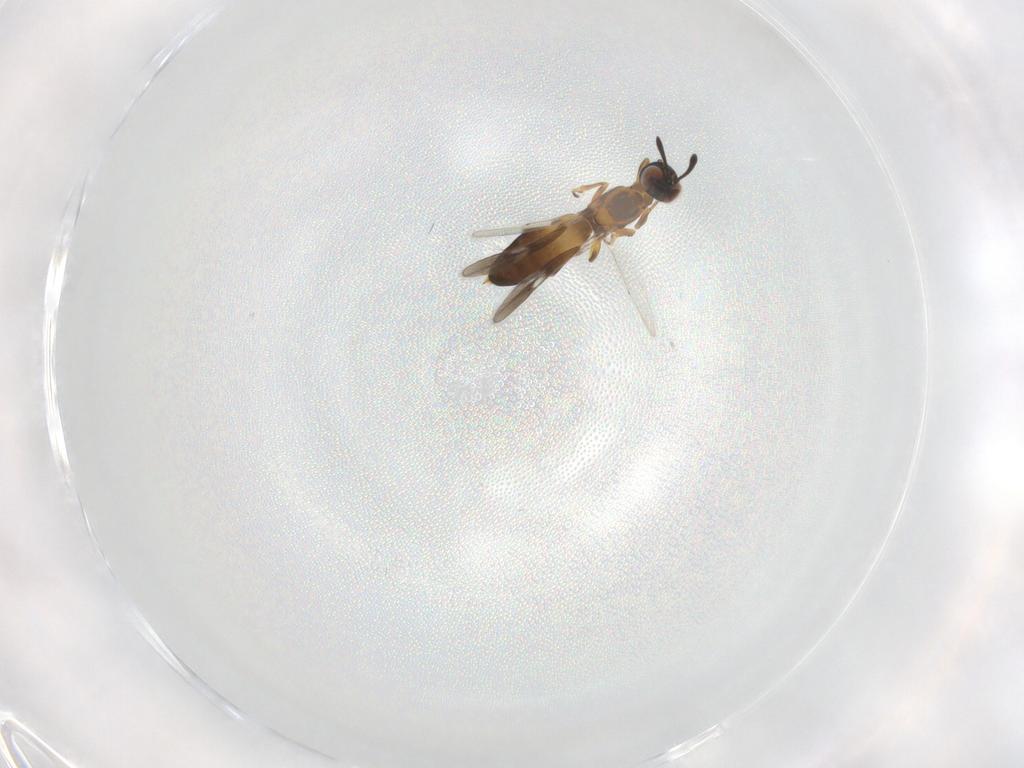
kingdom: Animalia
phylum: Arthropoda
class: Insecta
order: Hymenoptera
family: Eupelmidae
